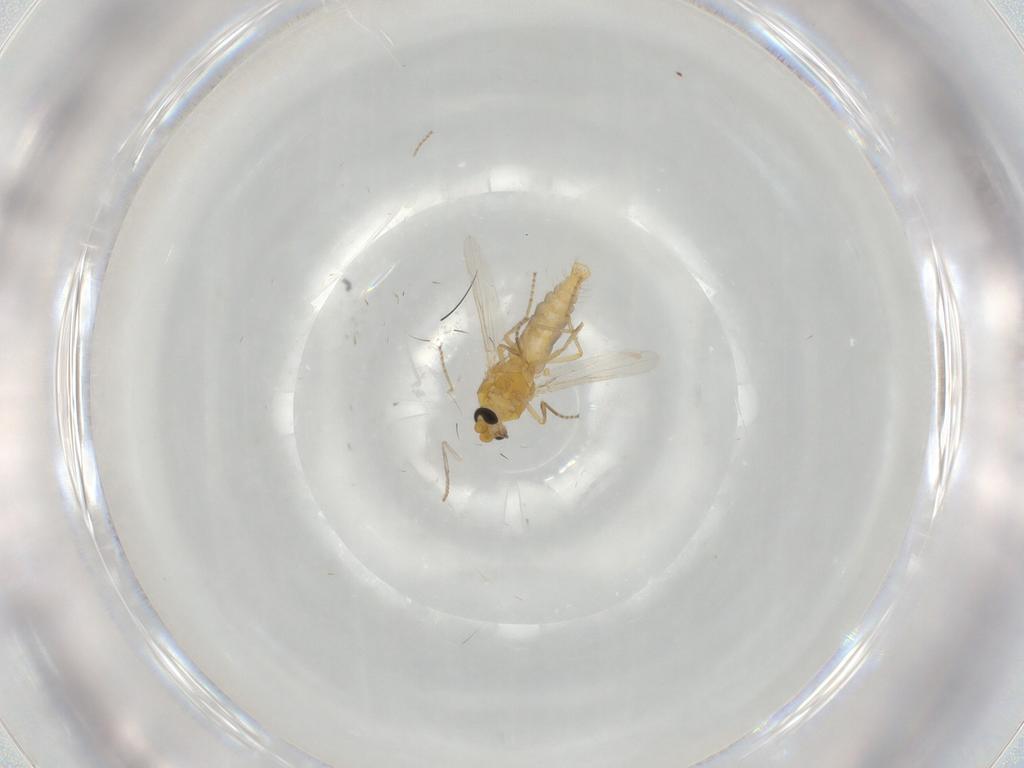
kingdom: Animalia
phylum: Arthropoda
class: Insecta
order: Diptera
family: Ceratopogonidae
